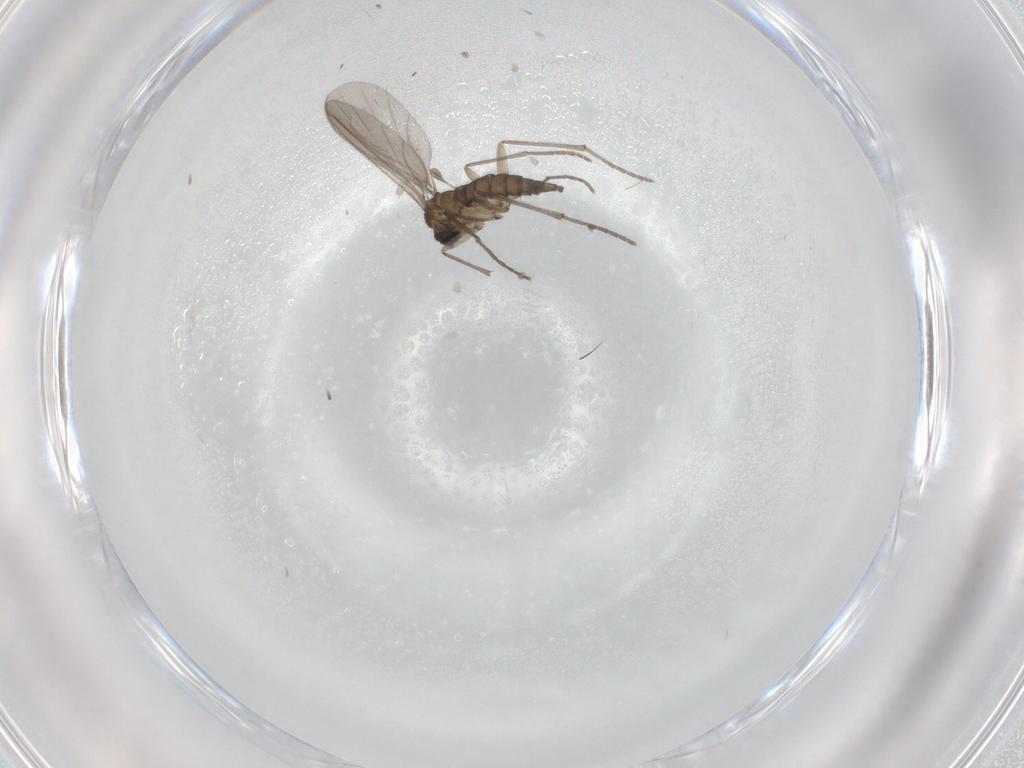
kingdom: Animalia
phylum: Arthropoda
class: Insecta
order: Diptera
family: Sciaridae
